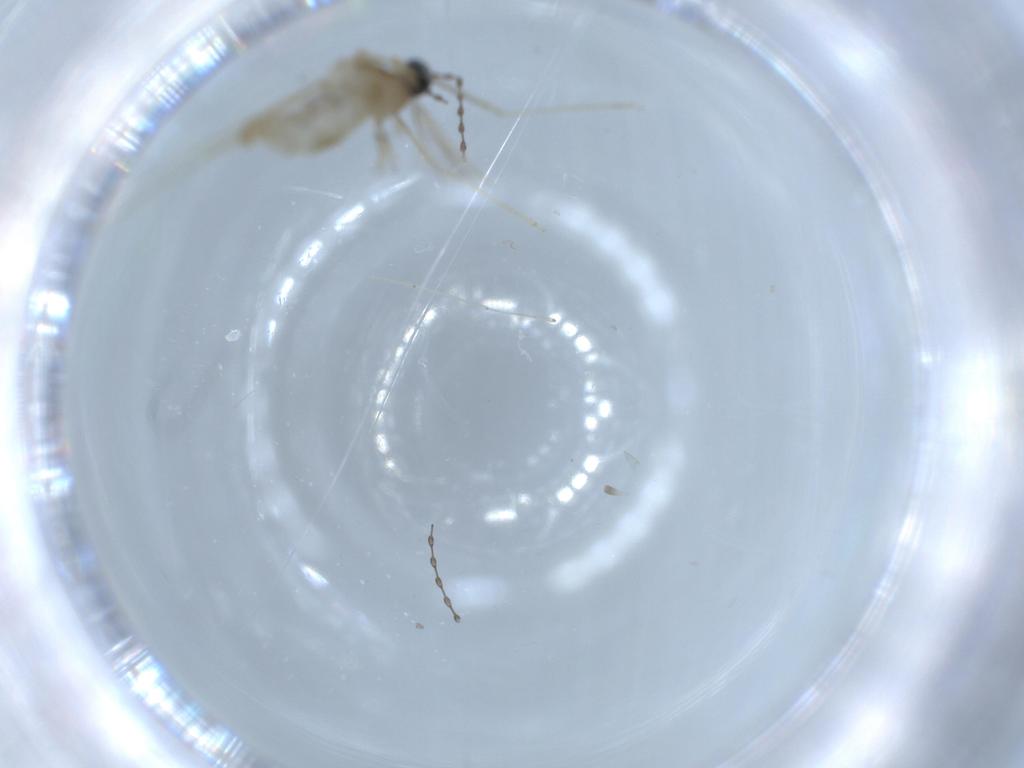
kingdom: Animalia
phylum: Arthropoda
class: Insecta
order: Diptera
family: Cecidomyiidae
